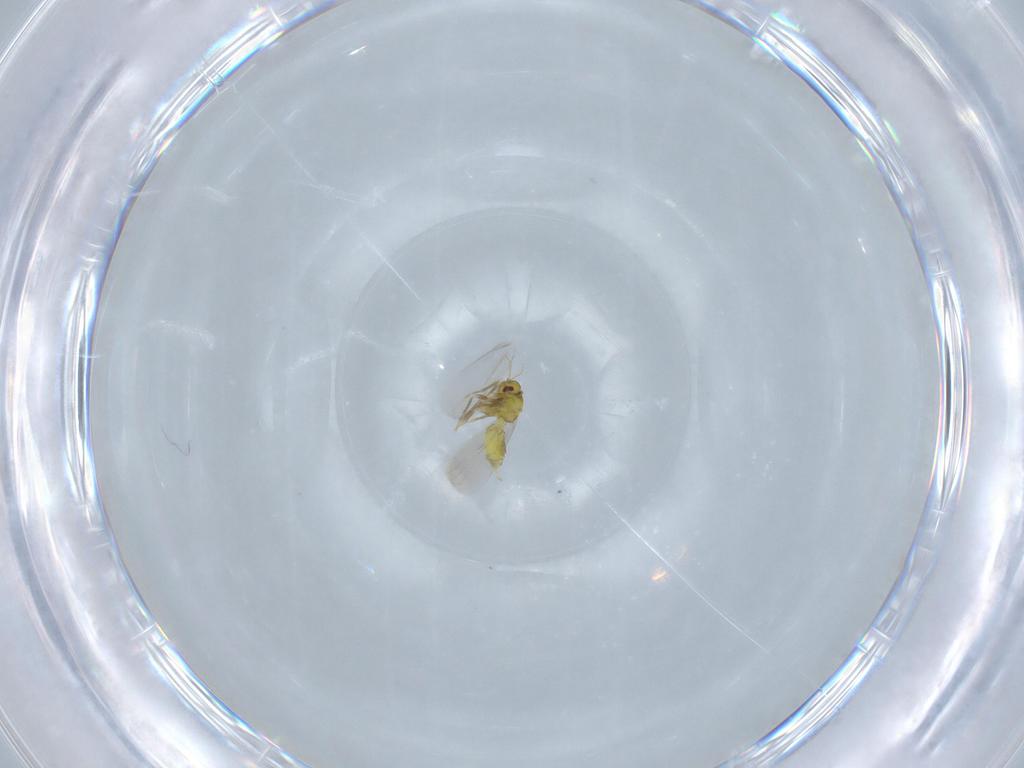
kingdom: Animalia
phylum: Arthropoda
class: Insecta
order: Hemiptera
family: Aleyrodidae
